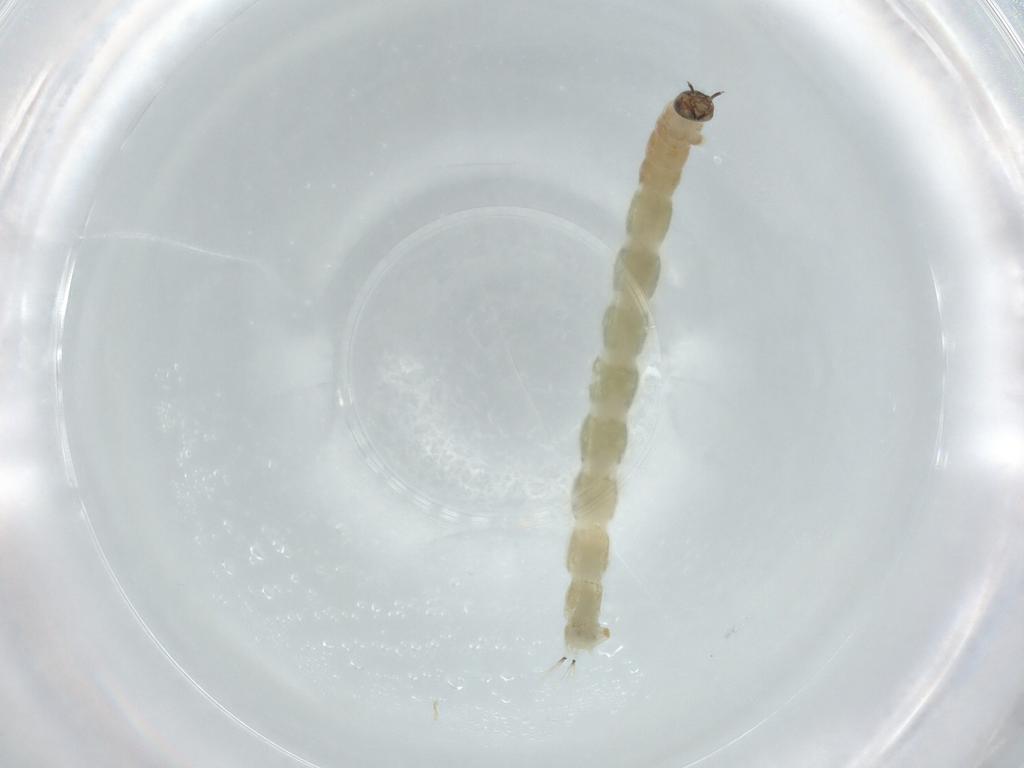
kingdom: Animalia
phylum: Arthropoda
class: Insecta
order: Diptera
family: Chironomidae
